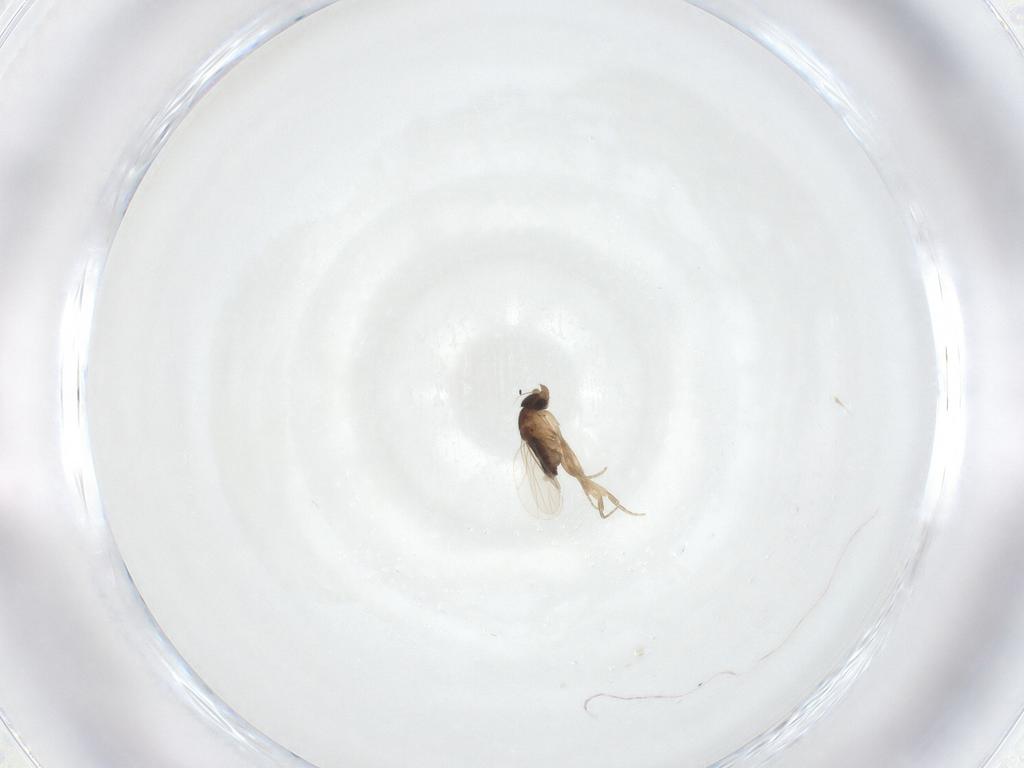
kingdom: Animalia
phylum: Arthropoda
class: Insecta
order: Diptera
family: Phoridae
